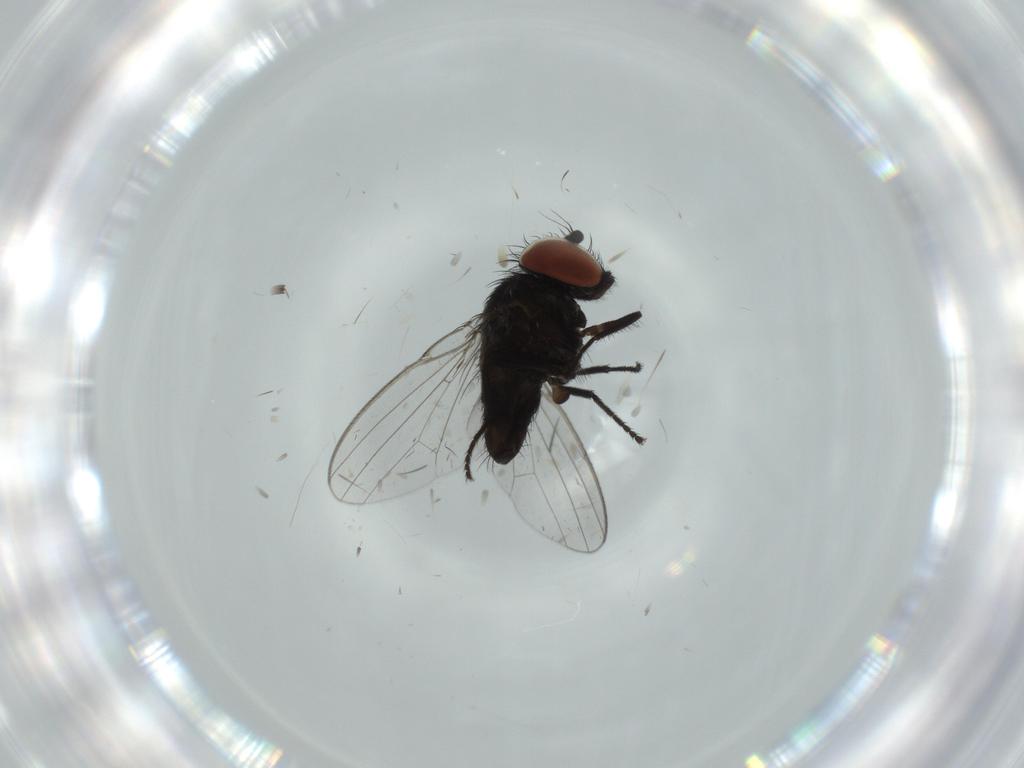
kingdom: Animalia
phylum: Arthropoda
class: Insecta
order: Diptera
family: Milichiidae
